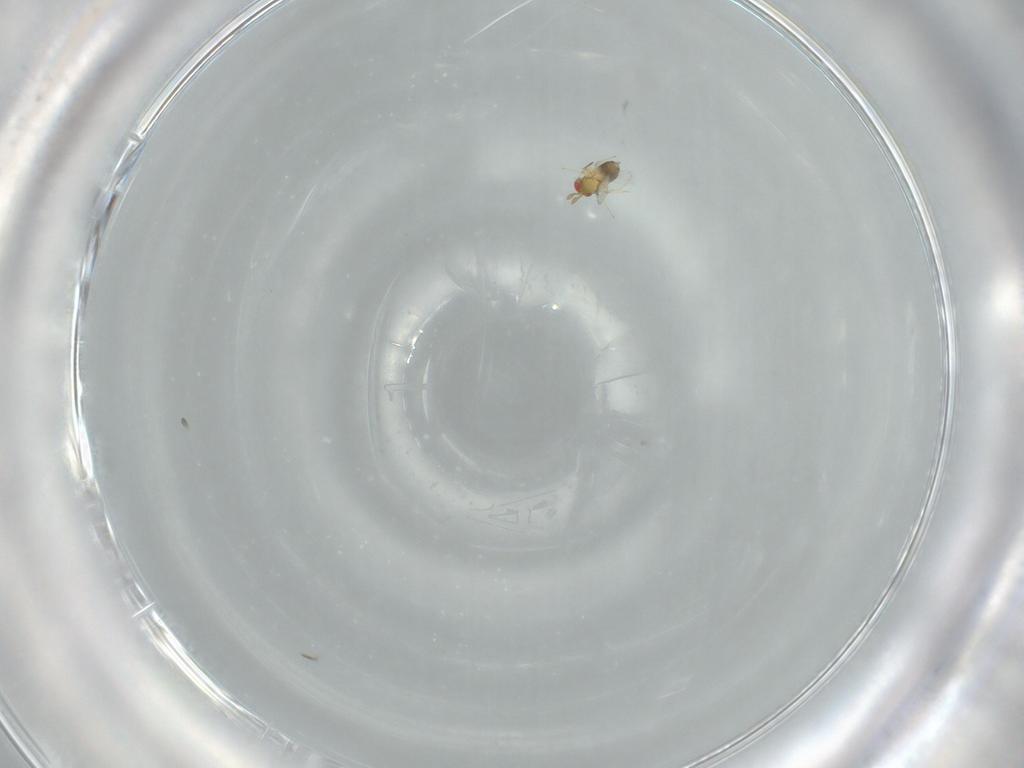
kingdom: Animalia
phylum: Arthropoda
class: Insecta
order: Hymenoptera
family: Trichogrammatidae
